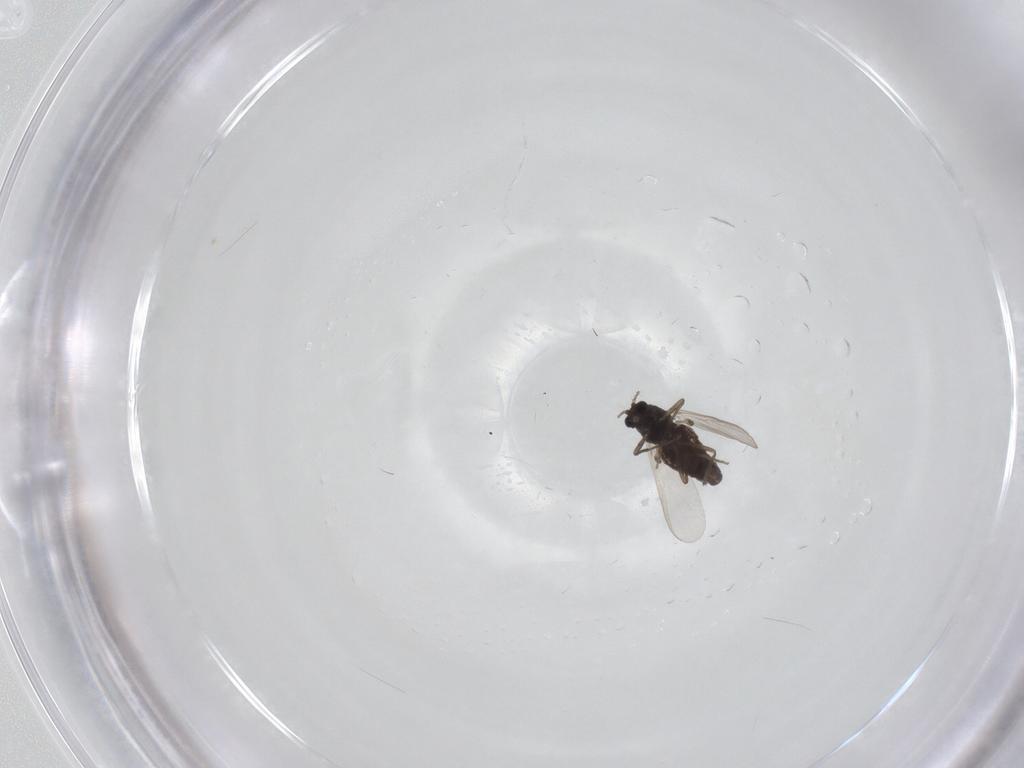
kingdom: Animalia
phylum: Arthropoda
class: Insecta
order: Diptera
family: Chironomidae
